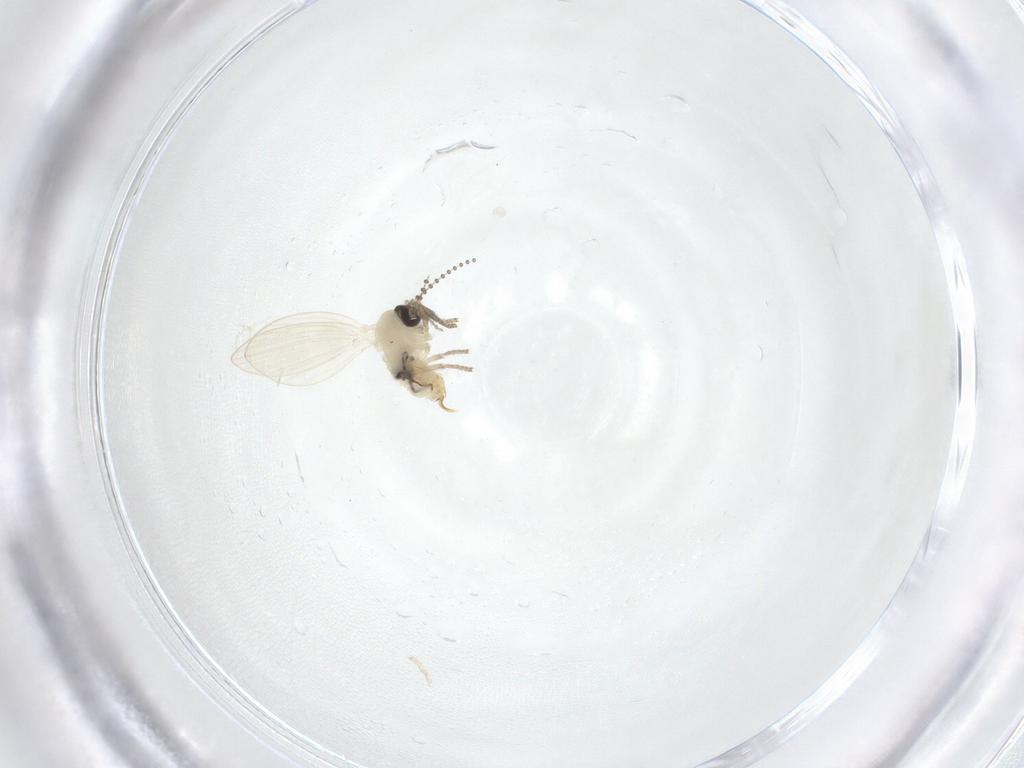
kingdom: Animalia
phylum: Arthropoda
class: Insecta
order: Diptera
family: Psychodidae
